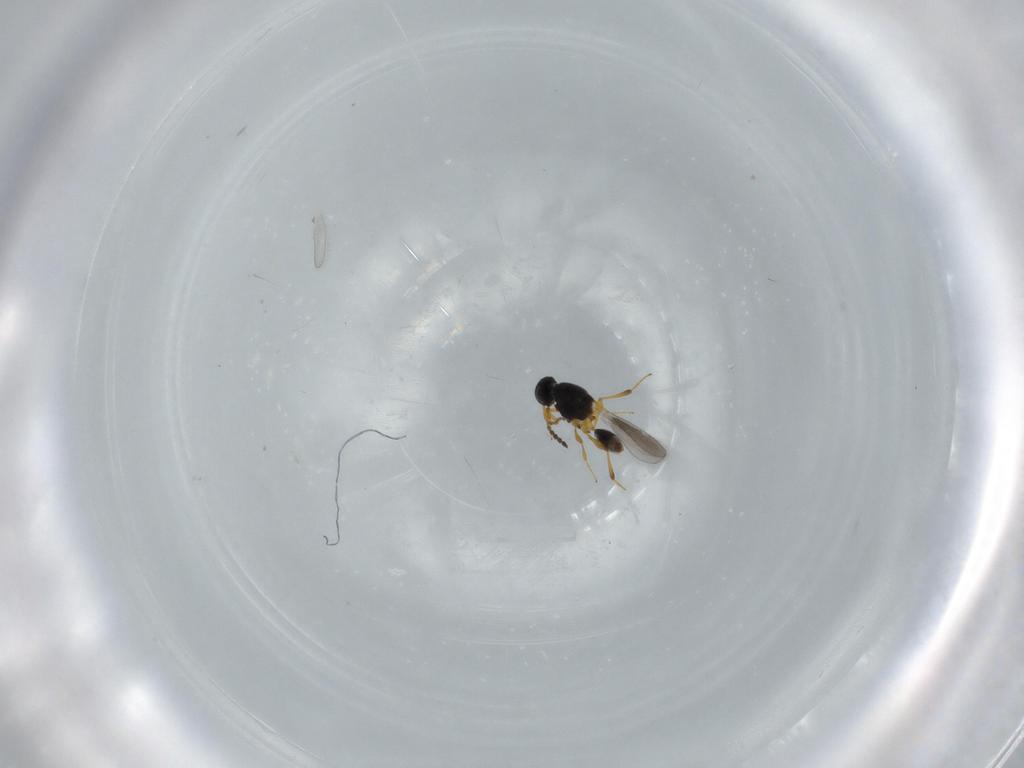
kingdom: Animalia
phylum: Arthropoda
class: Insecta
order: Hymenoptera
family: Platygastridae
